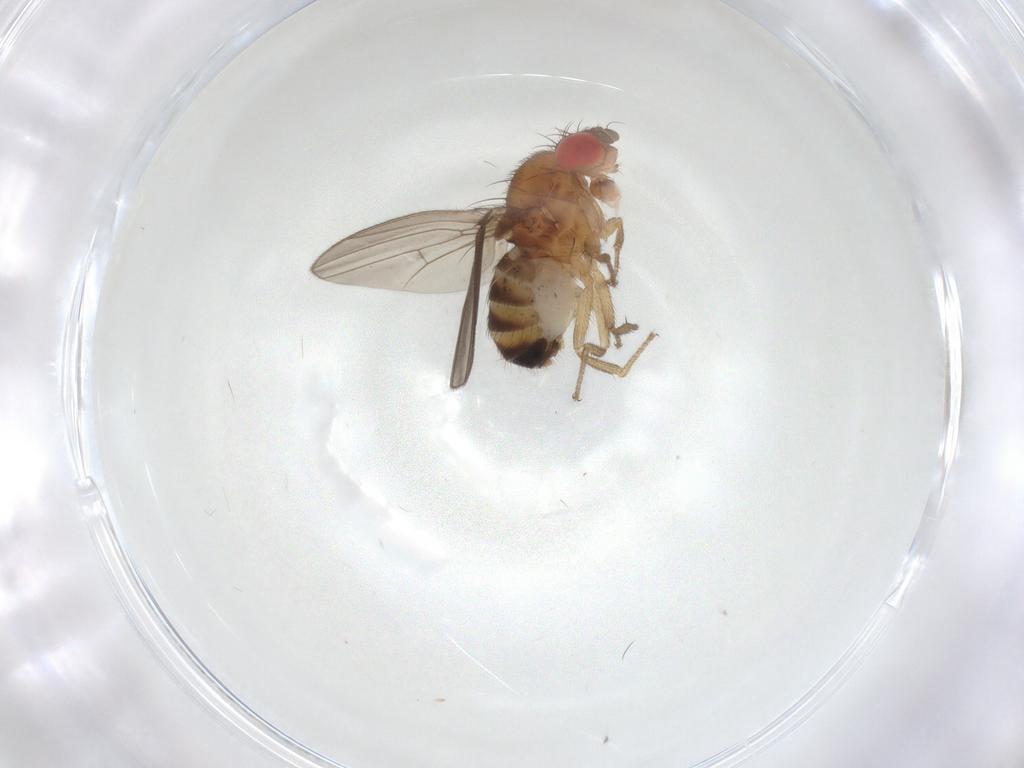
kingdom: Animalia
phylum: Arthropoda
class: Insecta
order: Diptera
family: Drosophilidae
